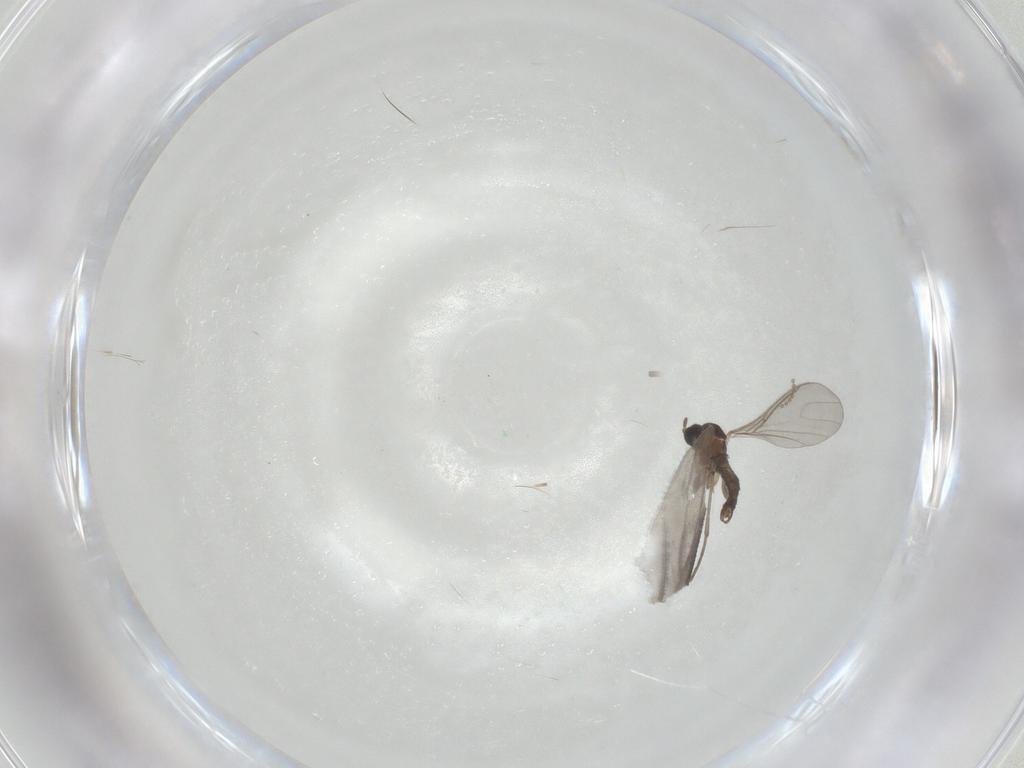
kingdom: Animalia
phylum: Arthropoda
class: Insecta
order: Diptera
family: Sciaridae
